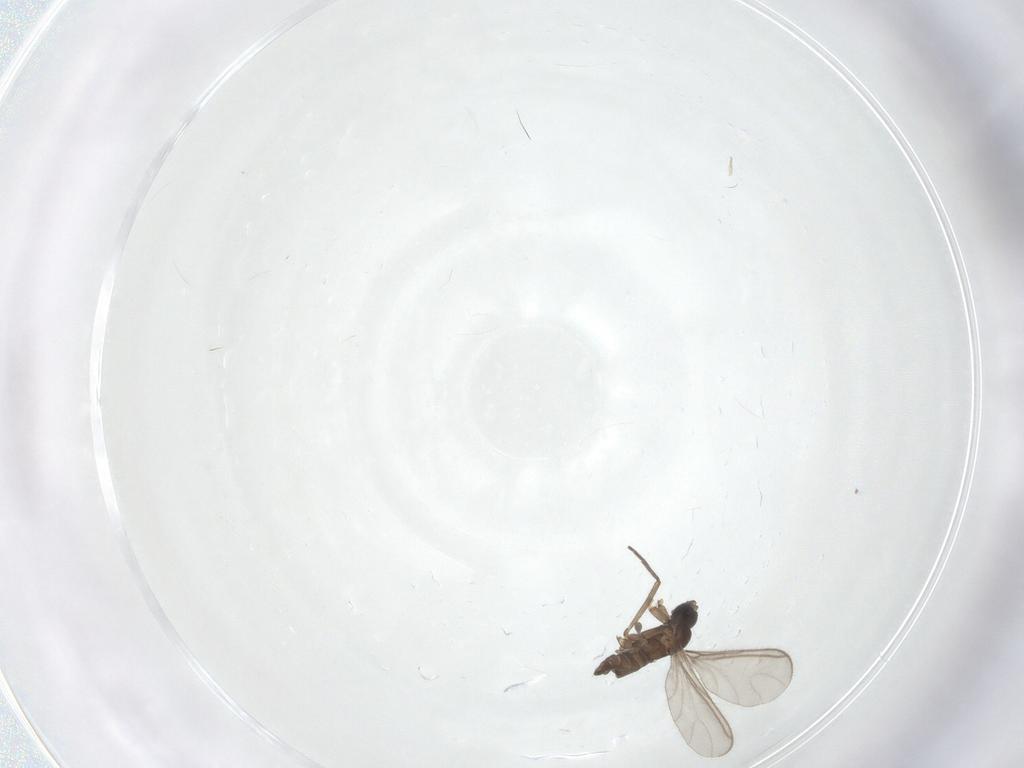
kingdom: Animalia
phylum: Arthropoda
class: Insecta
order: Diptera
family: Sciaridae
